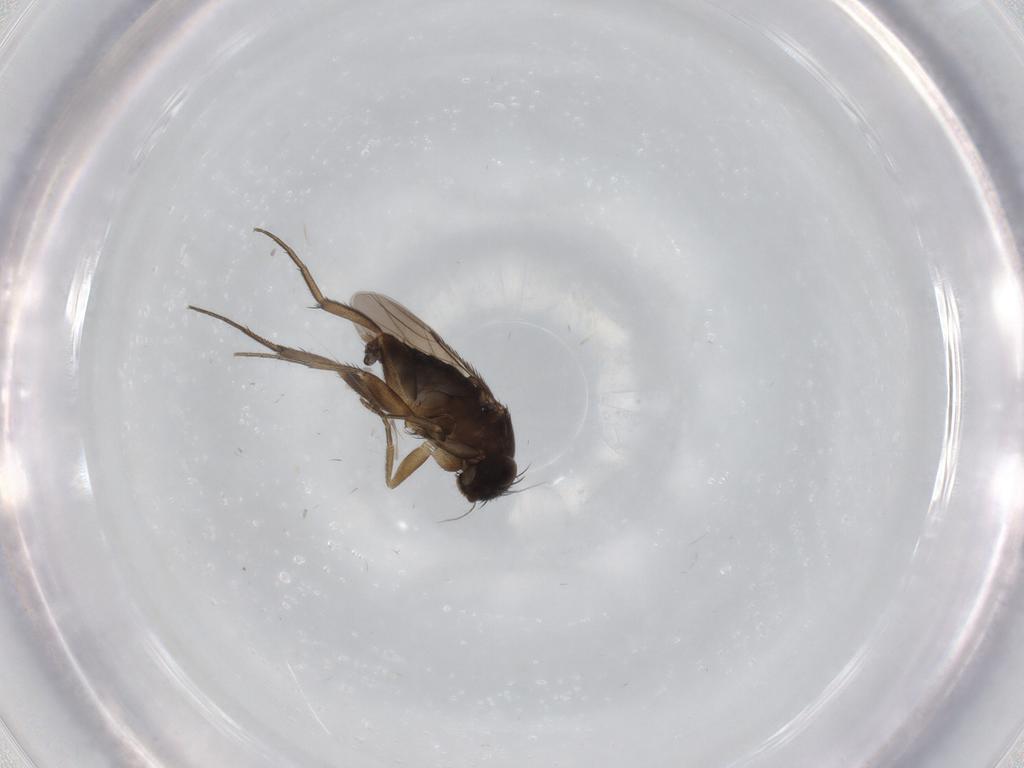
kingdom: Animalia
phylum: Arthropoda
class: Insecta
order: Diptera
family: Phoridae
